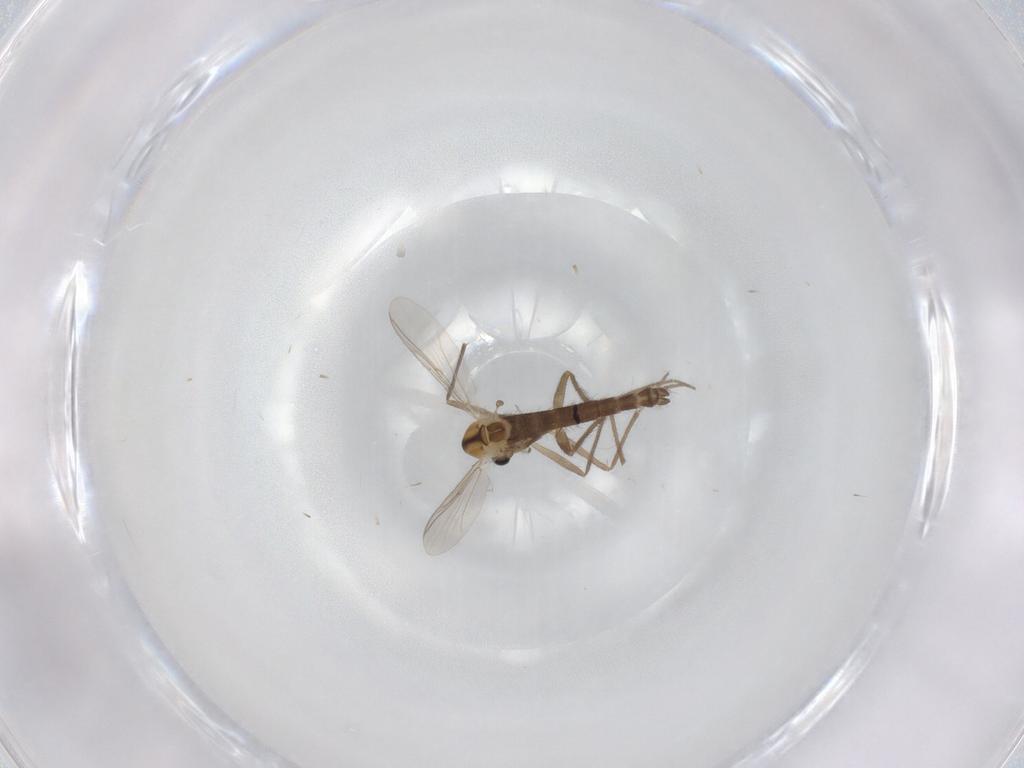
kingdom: Animalia
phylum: Arthropoda
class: Insecta
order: Diptera
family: Chironomidae
